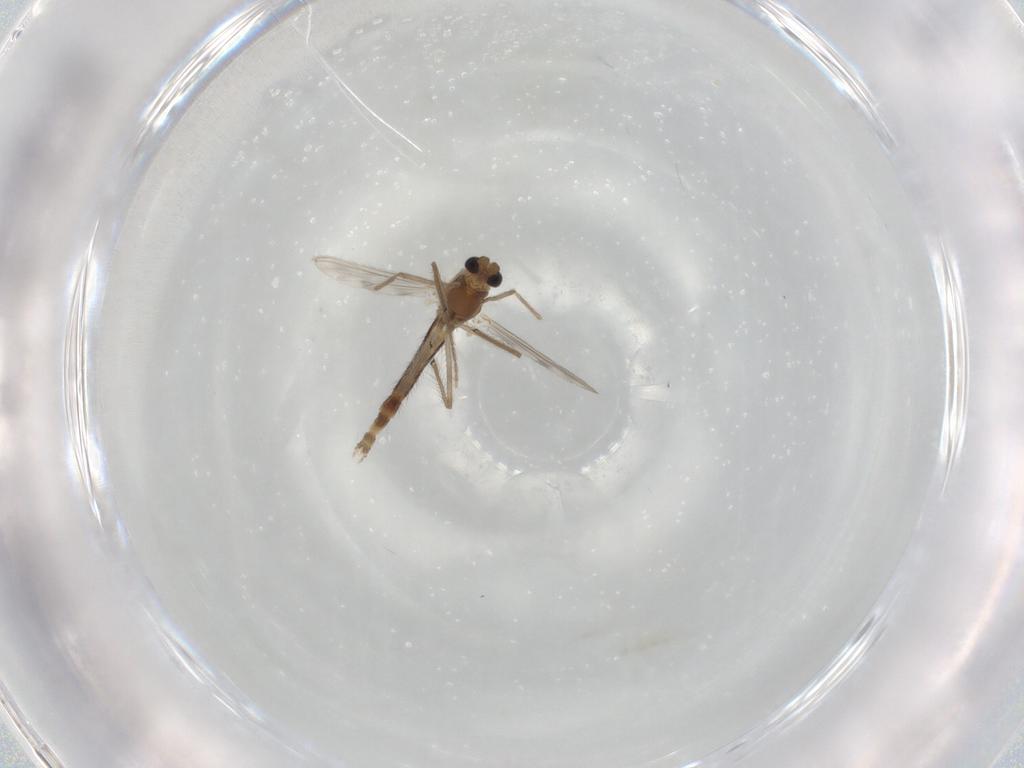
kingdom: Animalia
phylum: Arthropoda
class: Insecta
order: Diptera
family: Chironomidae
